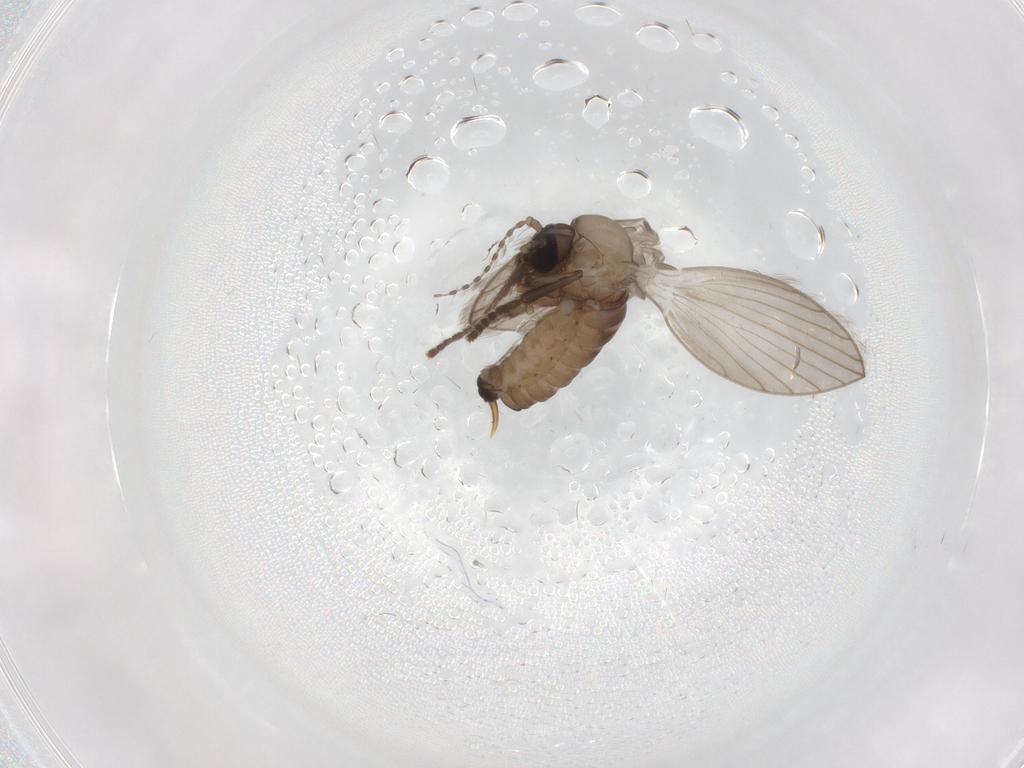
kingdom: Animalia
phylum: Arthropoda
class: Insecta
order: Diptera
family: Psychodidae
